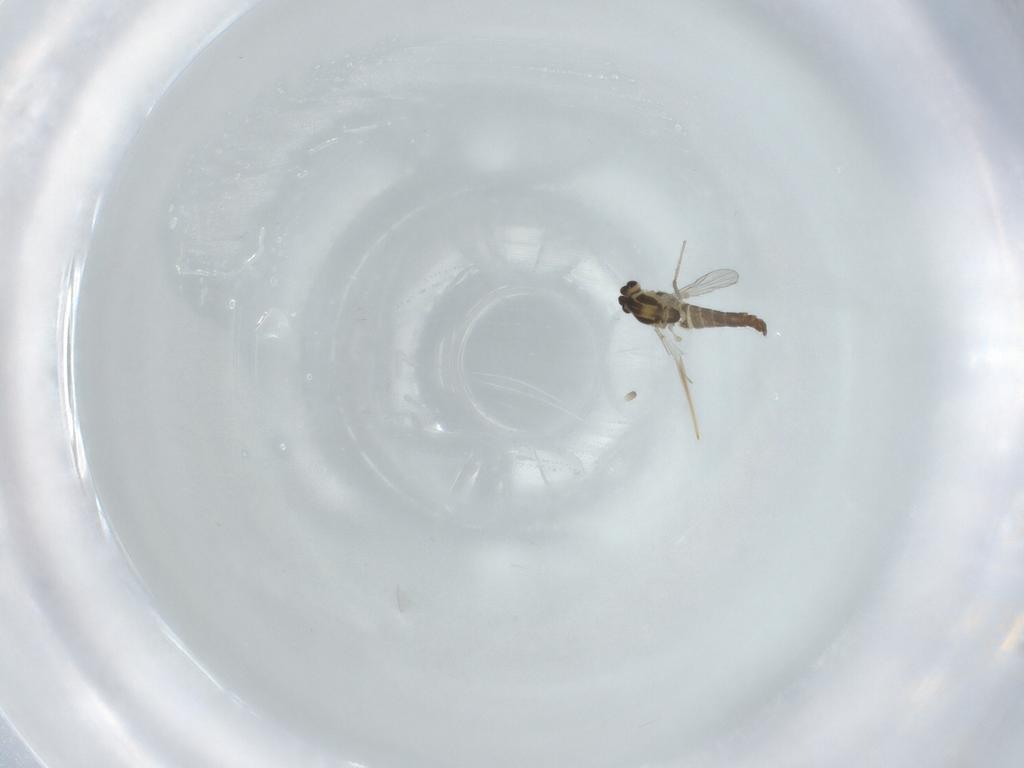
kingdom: Animalia
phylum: Arthropoda
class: Insecta
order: Diptera
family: Chironomidae
